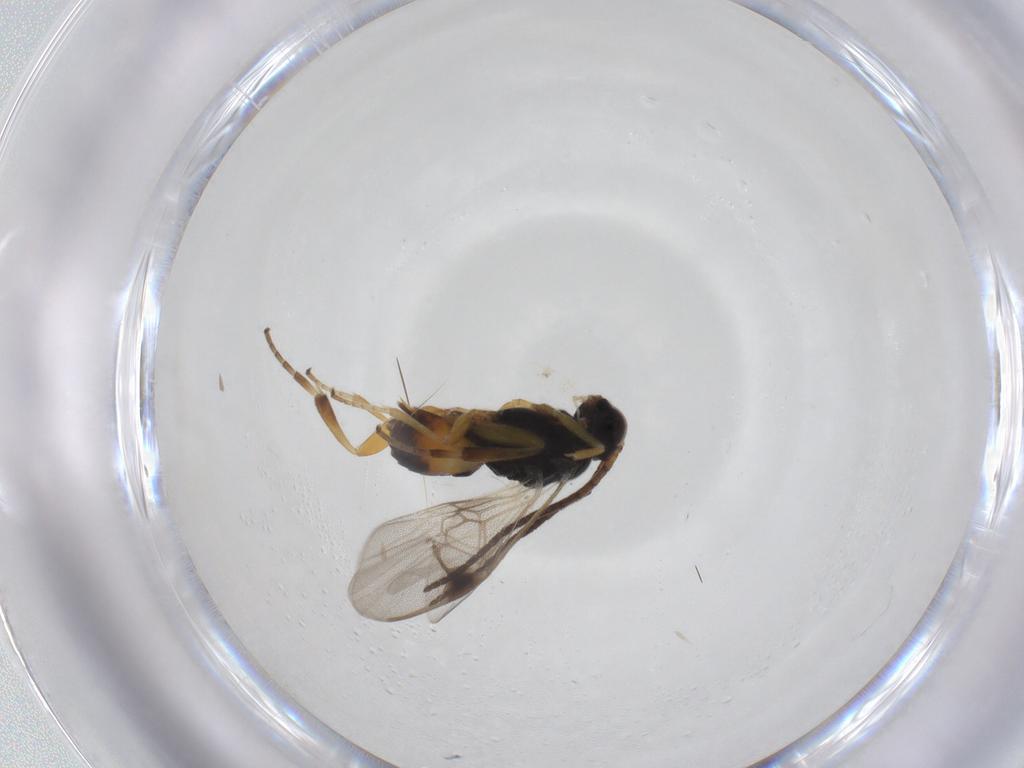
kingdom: Animalia
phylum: Arthropoda
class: Insecta
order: Hymenoptera
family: Braconidae
